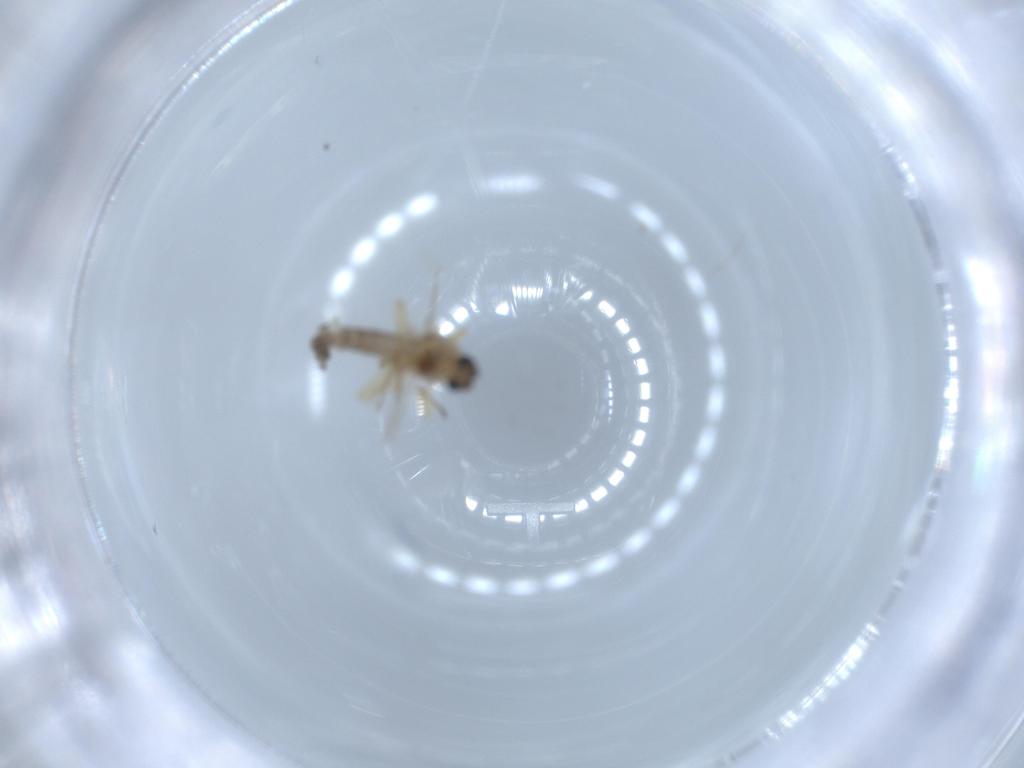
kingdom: Animalia
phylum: Arthropoda
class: Insecta
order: Diptera
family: Ceratopogonidae
